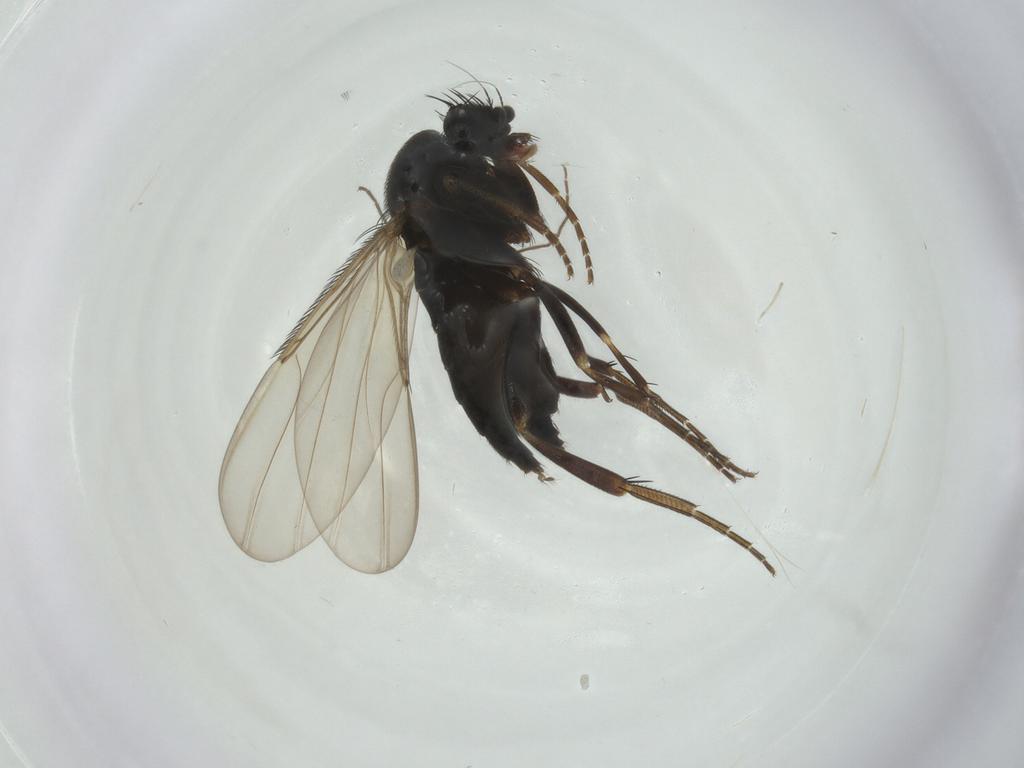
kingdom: Animalia
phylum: Arthropoda
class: Insecta
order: Diptera
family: Phoridae
